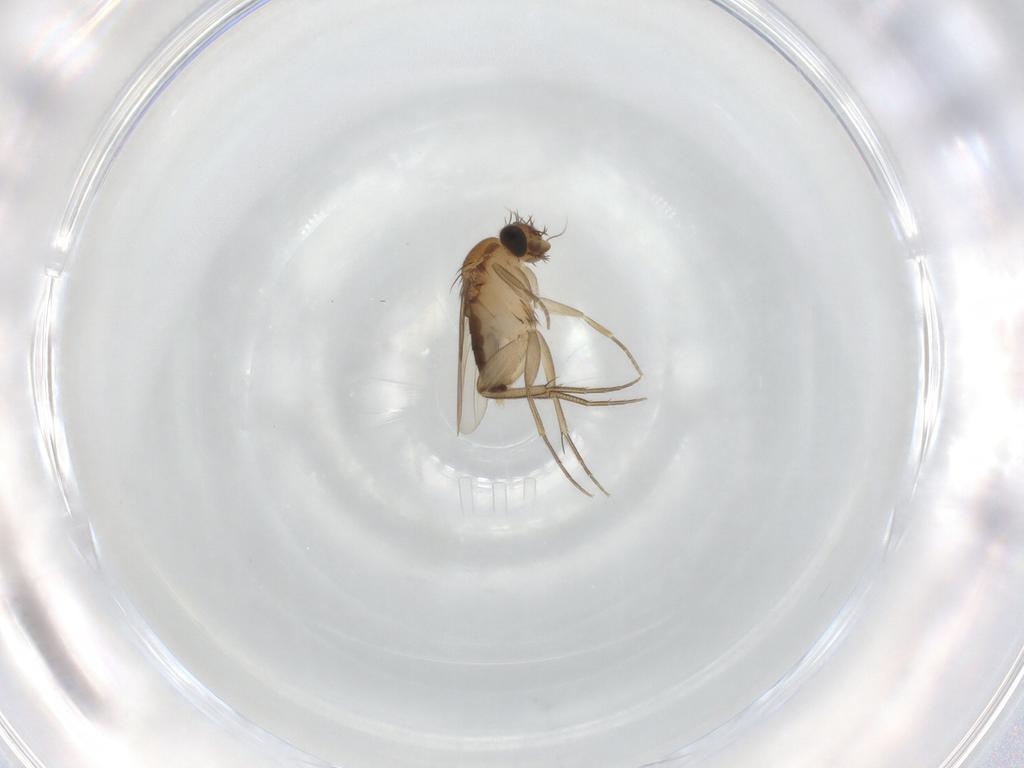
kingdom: Animalia
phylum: Arthropoda
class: Insecta
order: Diptera
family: Phoridae
